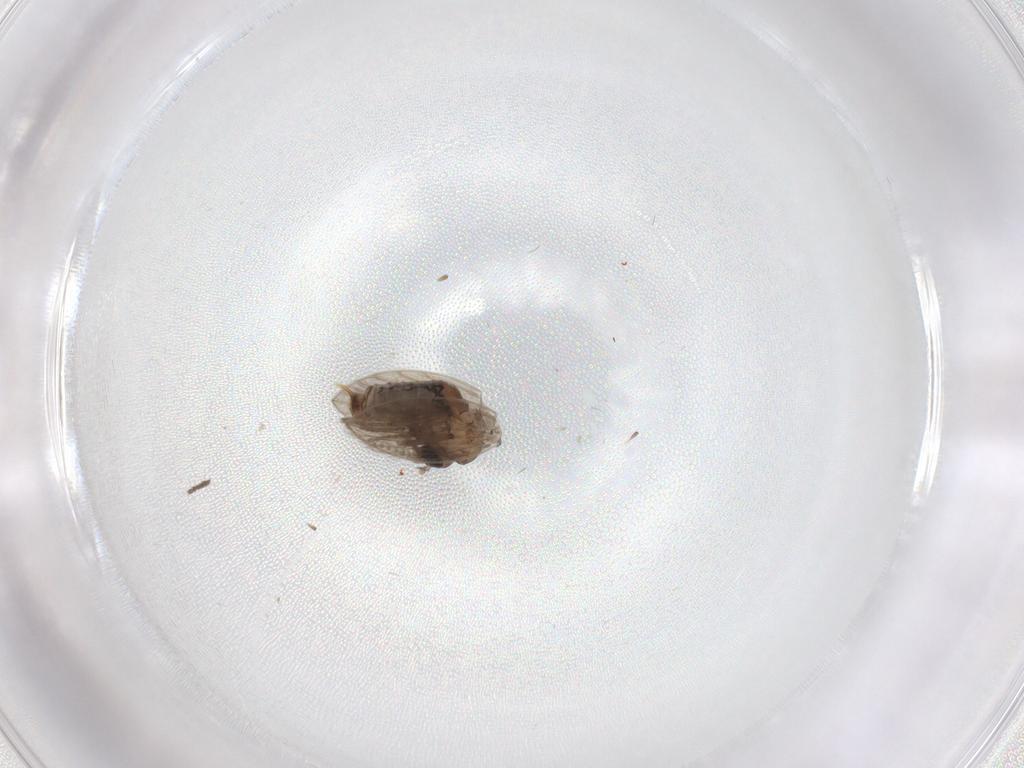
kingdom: Animalia
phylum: Arthropoda
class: Insecta
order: Diptera
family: Psychodidae
